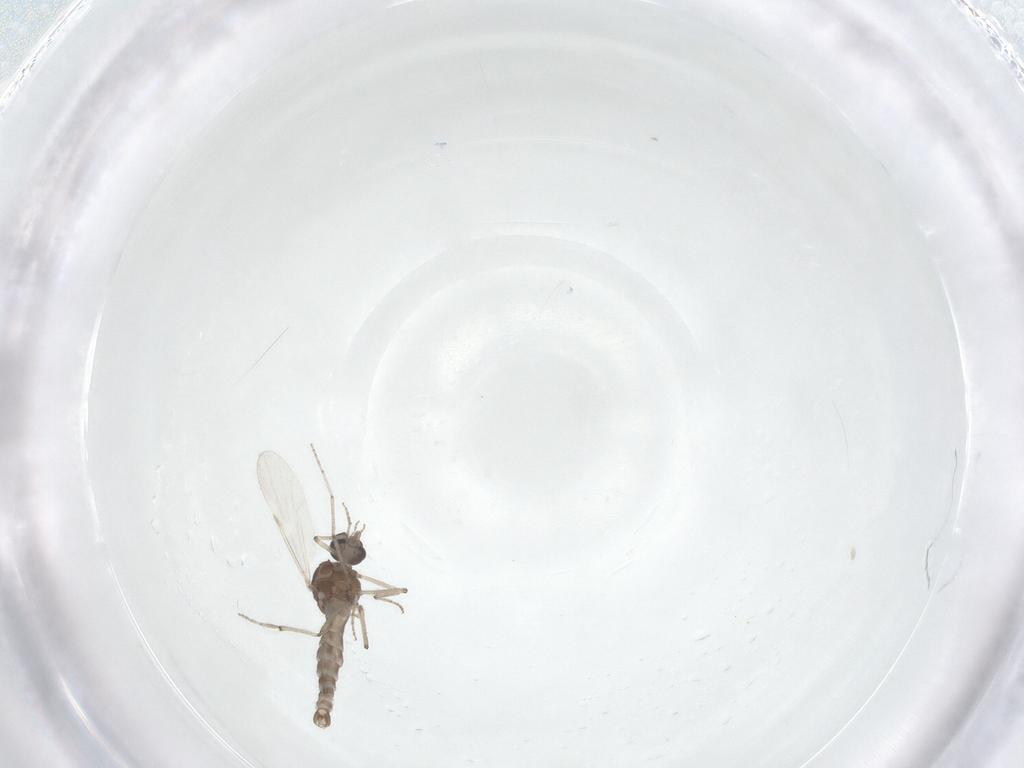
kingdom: Animalia
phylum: Arthropoda
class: Insecta
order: Diptera
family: Ceratopogonidae
